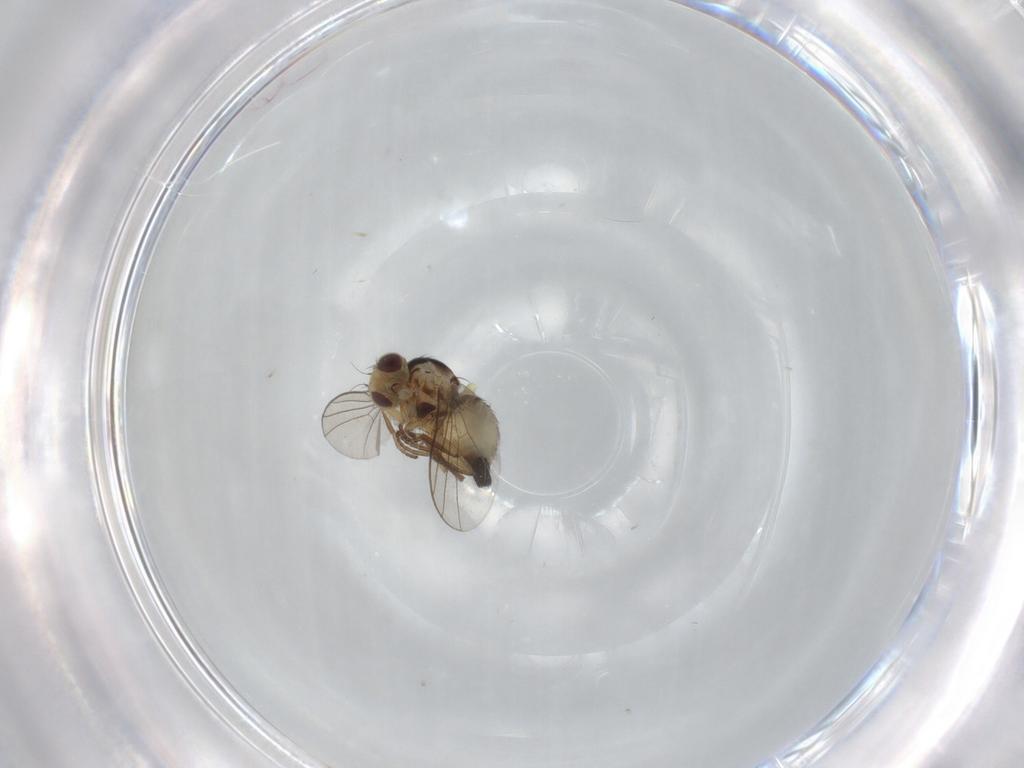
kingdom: Animalia
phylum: Arthropoda
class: Insecta
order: Diptera
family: Agromyzidae
